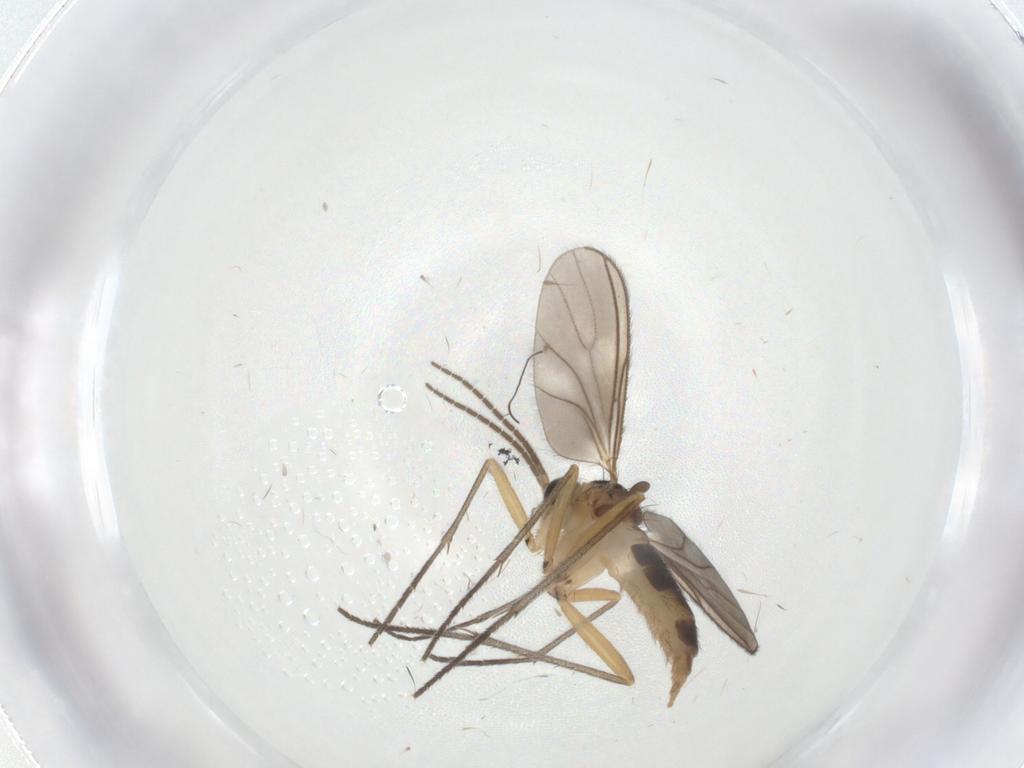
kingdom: Animalia
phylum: Arthropoda
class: Insecta
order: Diptera
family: Sciaridae
